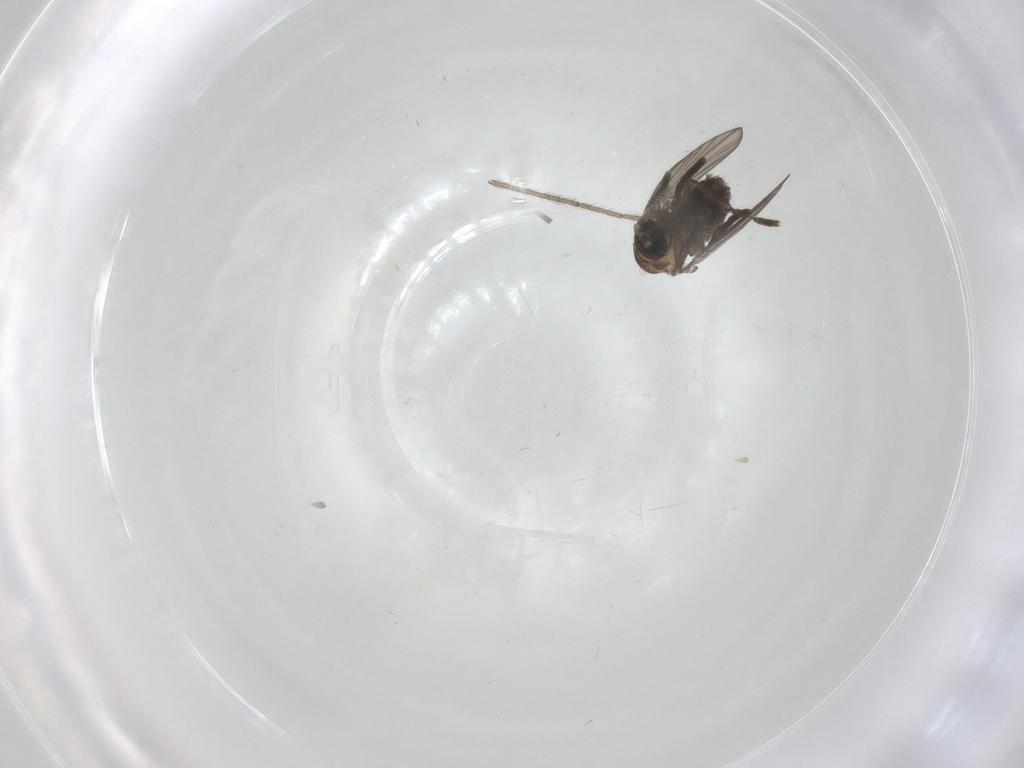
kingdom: Animalia
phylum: Arthropoda
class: Insecta
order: Diptera
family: Psychodidae
